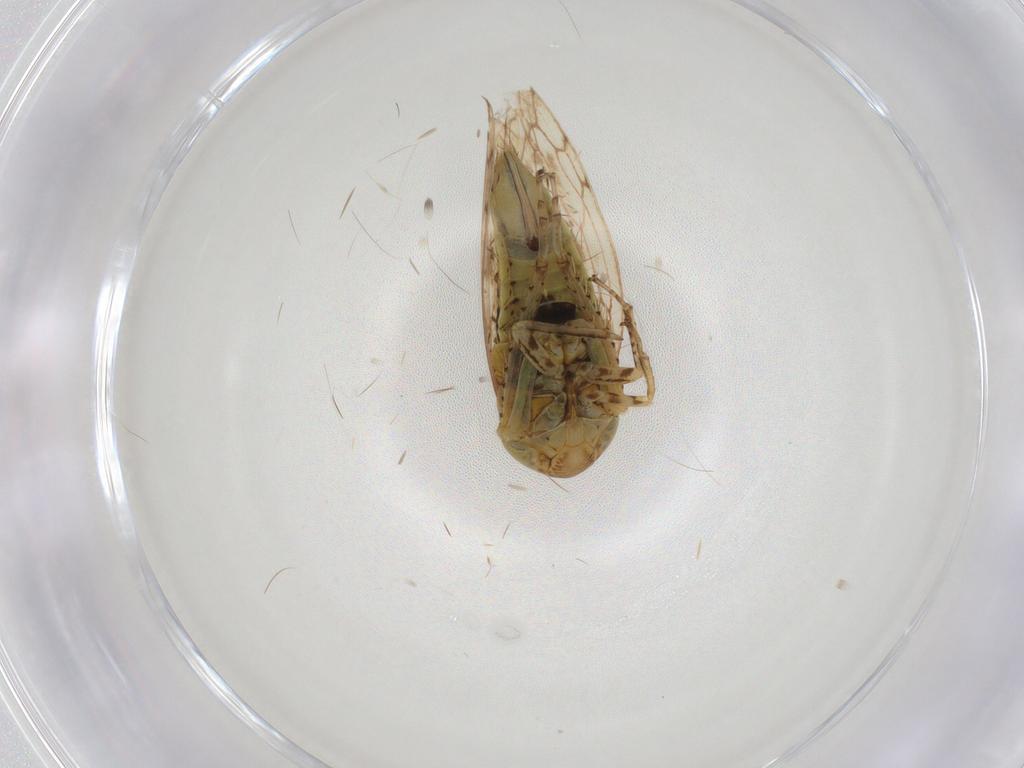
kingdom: Animalia
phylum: Arthropoda
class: Insecta
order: Hemiptera
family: Cicadellidae
